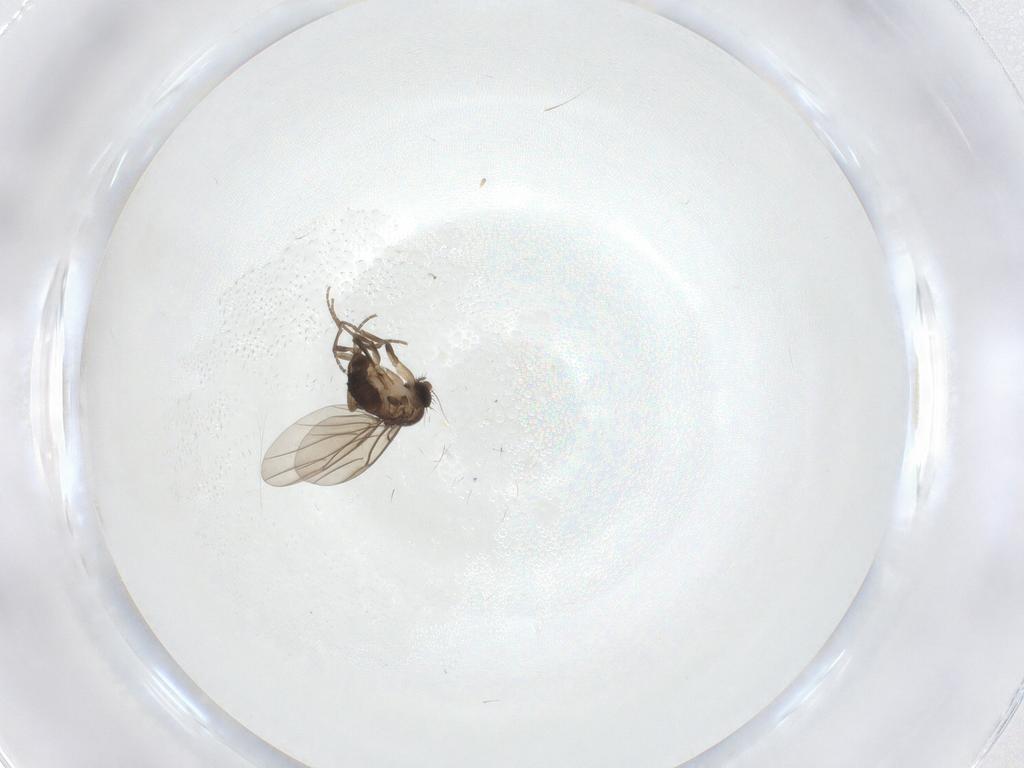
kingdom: Animalia
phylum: Arthropoda
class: Insecta
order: Diptera
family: Phoridae
